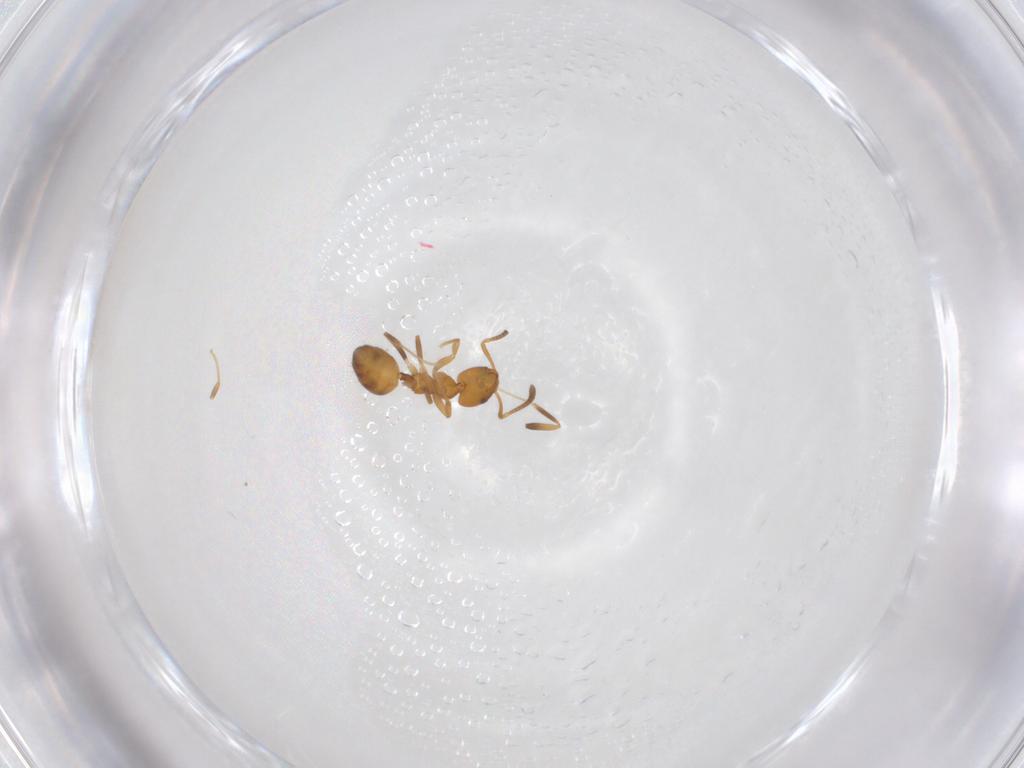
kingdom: Animalia
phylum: Arthropoda
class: Insecta
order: Hymenoptera
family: Formicidae
